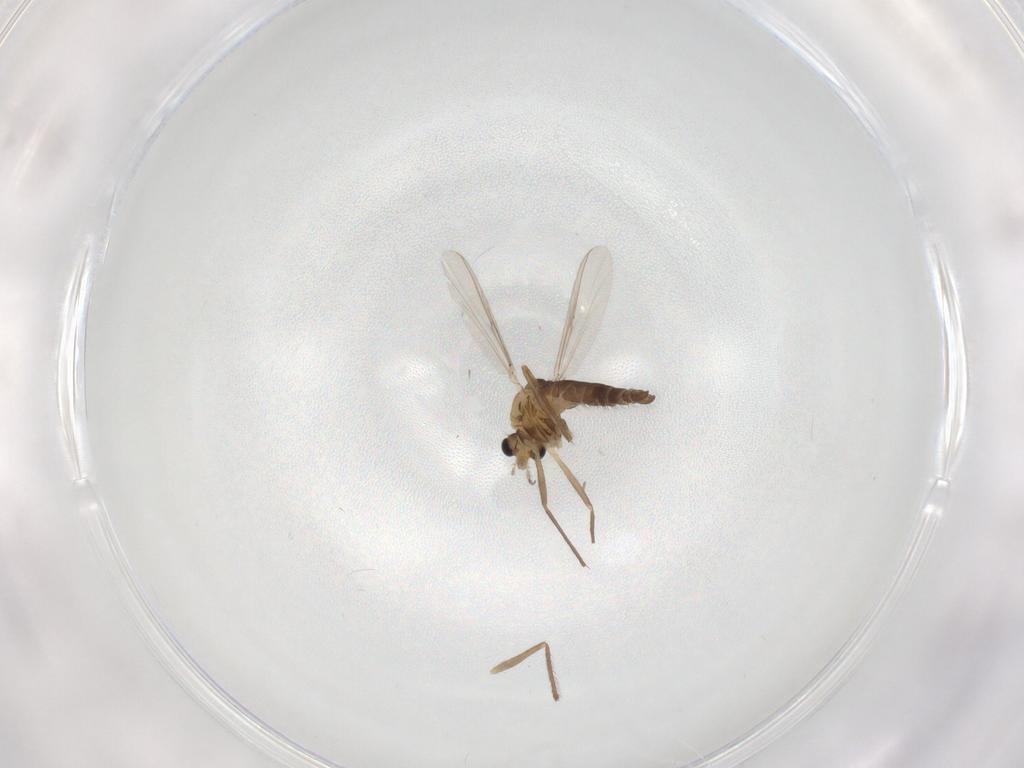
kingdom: Animalia
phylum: Arthropoda
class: Insecta
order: Diptera
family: Chironomidae
